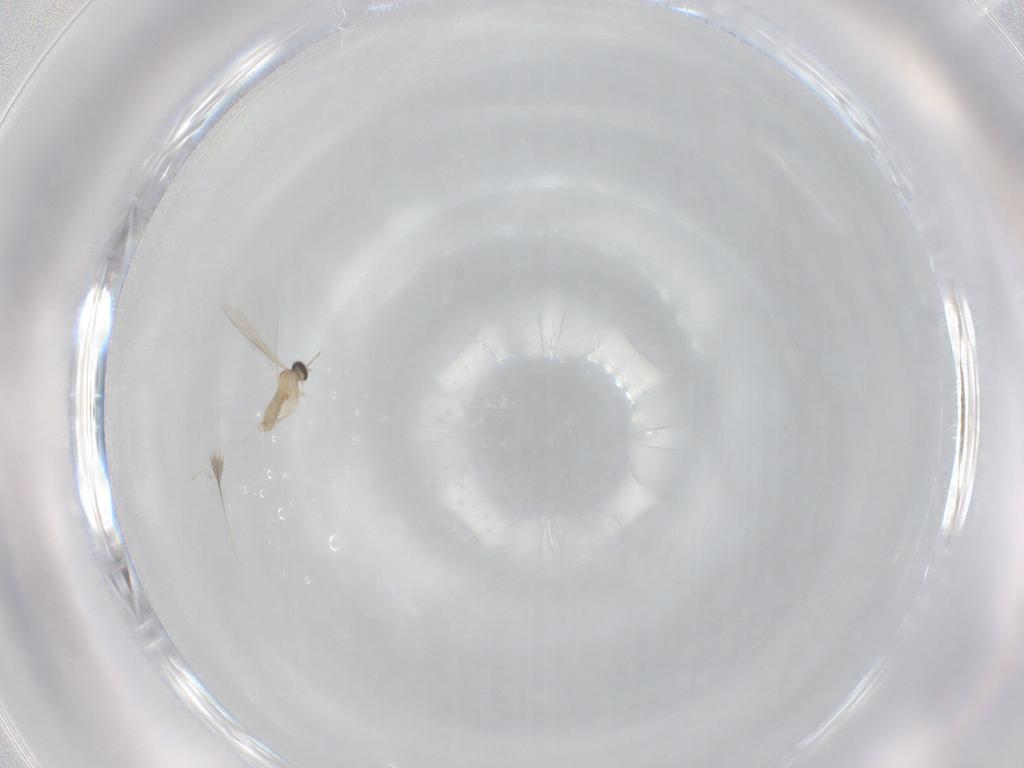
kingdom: Animalia
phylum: Arthropoda
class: Insecta
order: Diptera
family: Cecidomyiidae
